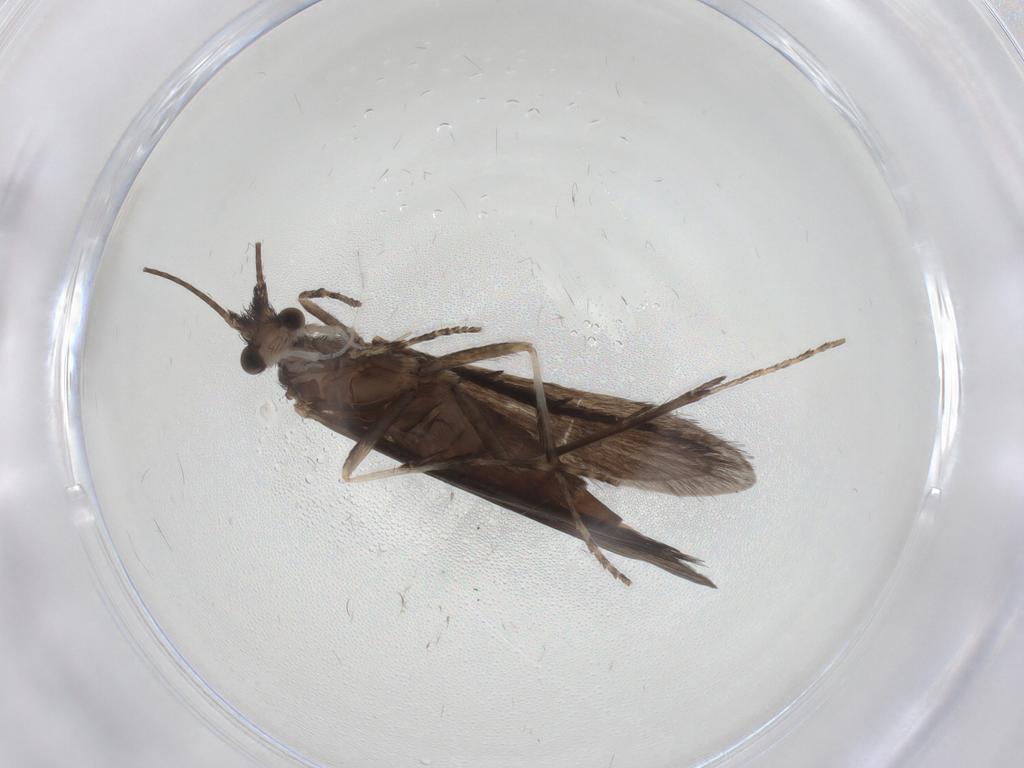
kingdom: Animalia
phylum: Arthropoda
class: Insecta
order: Trichoptera
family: Xiphocentronidae
